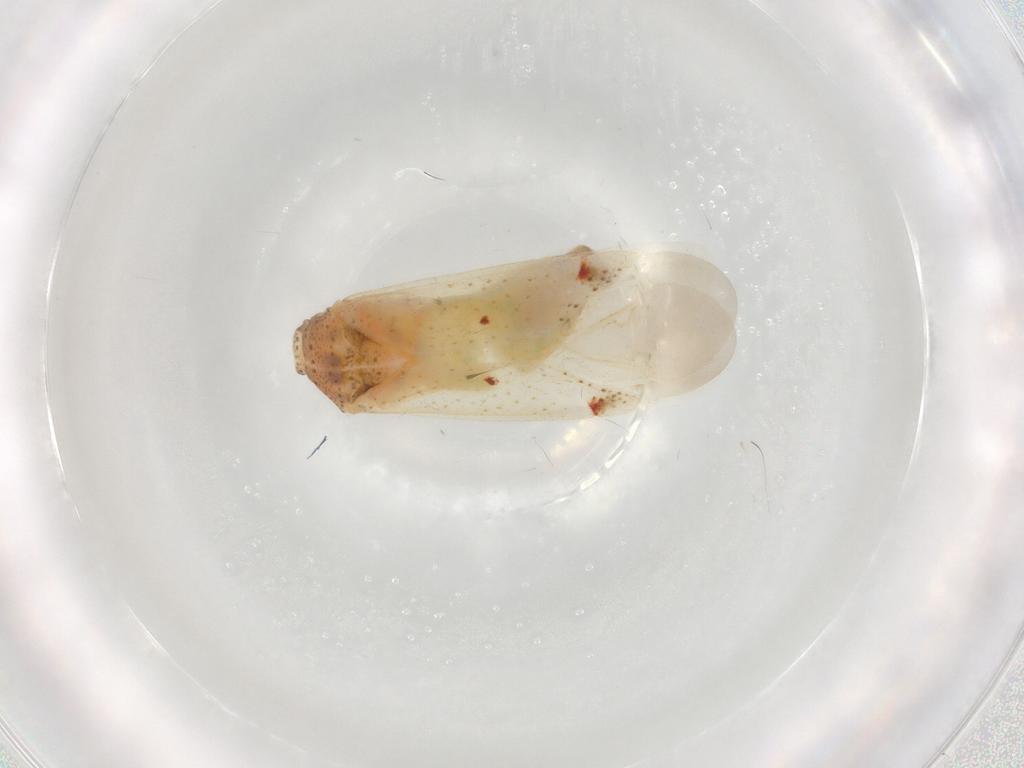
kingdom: Animalia
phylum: Arthropoda
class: Insecta
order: Hemiptera
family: Miridae
